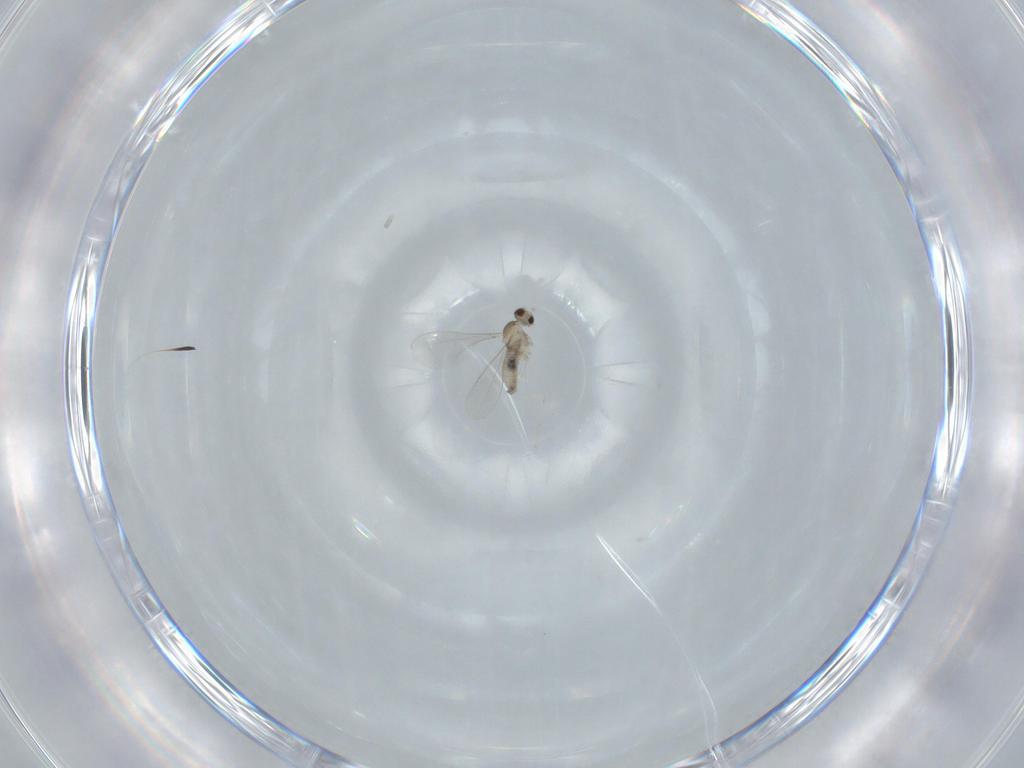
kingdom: Animalia
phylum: Arthropoda
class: Insecta
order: Diptera
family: Cecidomyiidae
